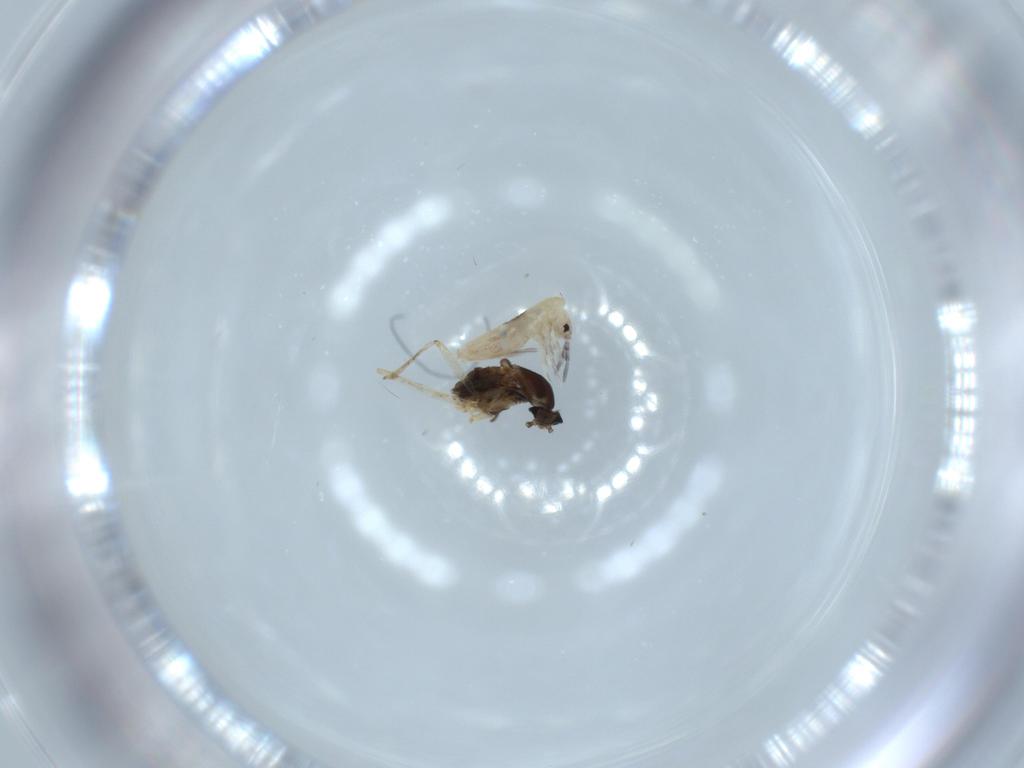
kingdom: Animalia
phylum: Arthropoda
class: Insecta
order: Diptera
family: Cecidomyiidae
